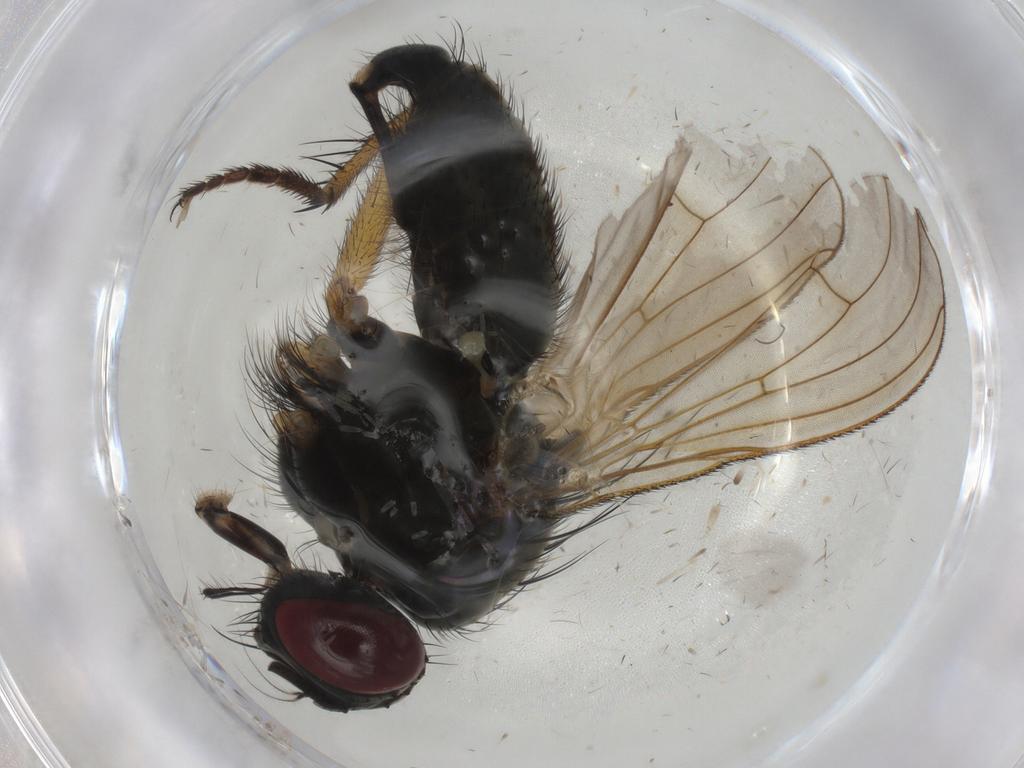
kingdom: Animalia
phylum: Arthropoda
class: Insecta
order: Diptera
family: Muscidae
